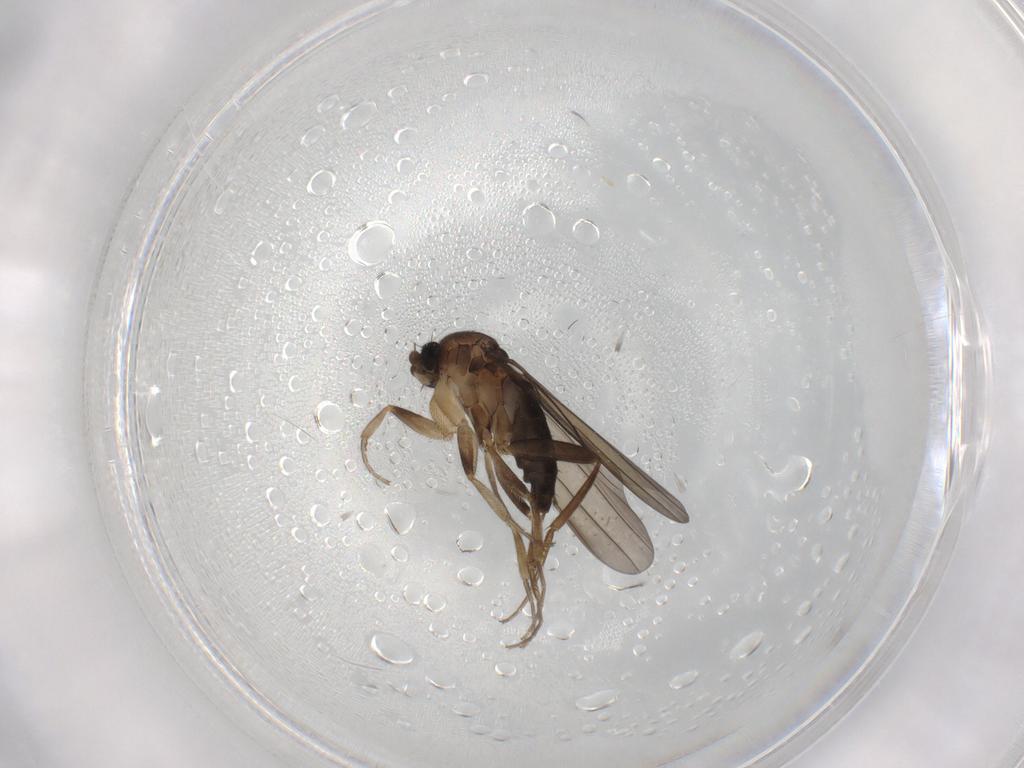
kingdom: Animalia
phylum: Arthropoda
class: Insecta
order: Diptera
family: Phoridae
